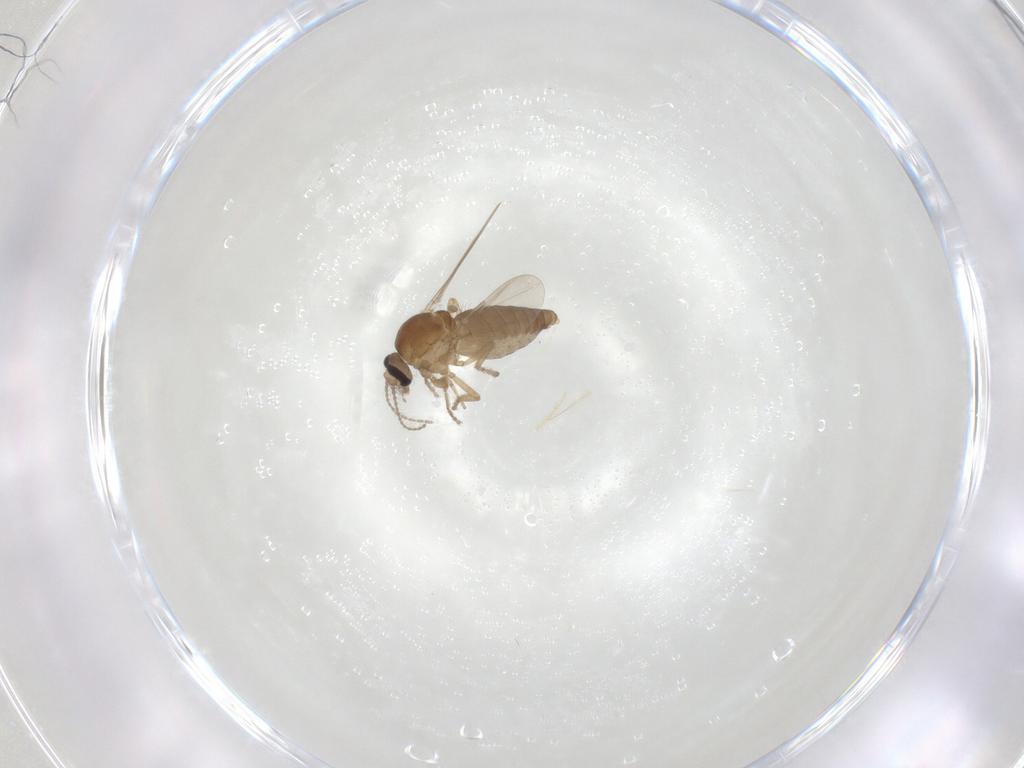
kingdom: Animalia
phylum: Arthropoda
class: Insecta
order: Diptera
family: Ceratopogonidae
